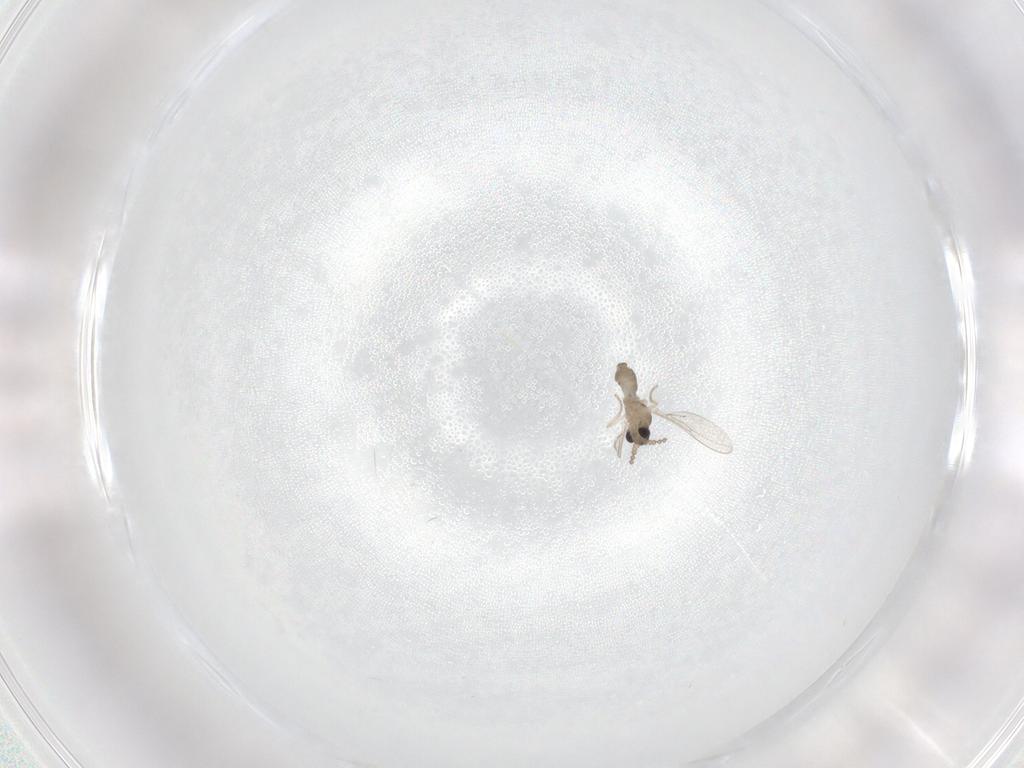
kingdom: Animalia
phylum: Arthropoda
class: Insecta
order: Diptera
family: Cecidomyiidae
